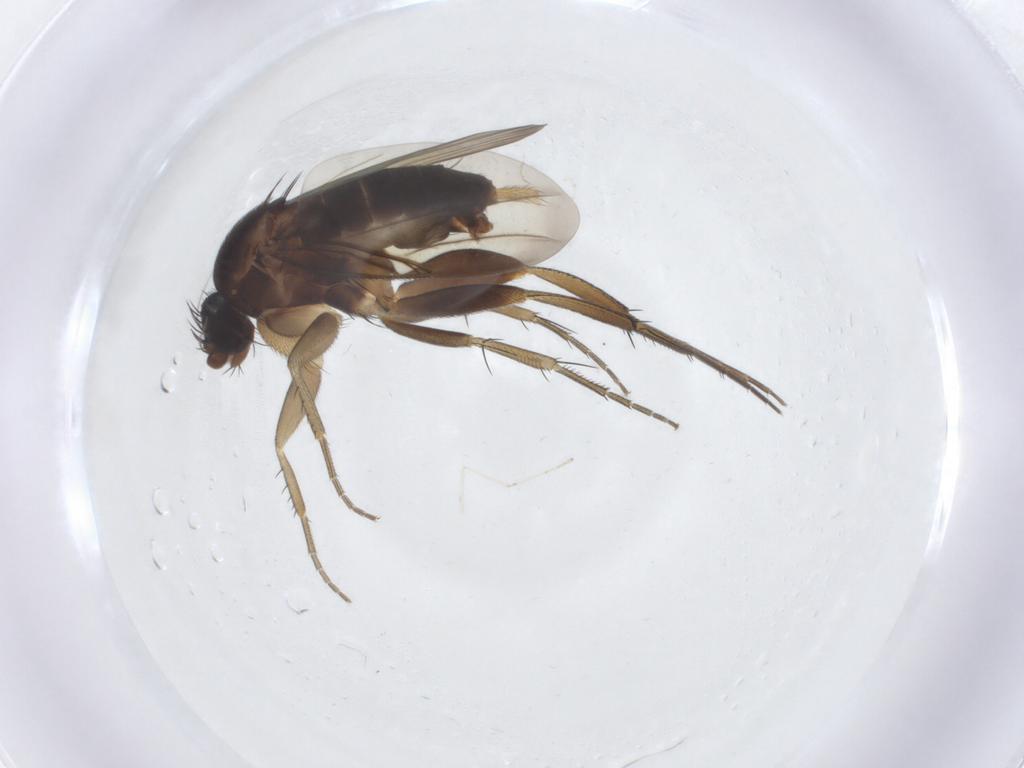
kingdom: Animalia
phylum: Arthropoda
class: Insecta
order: Diptera
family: Phoridae
